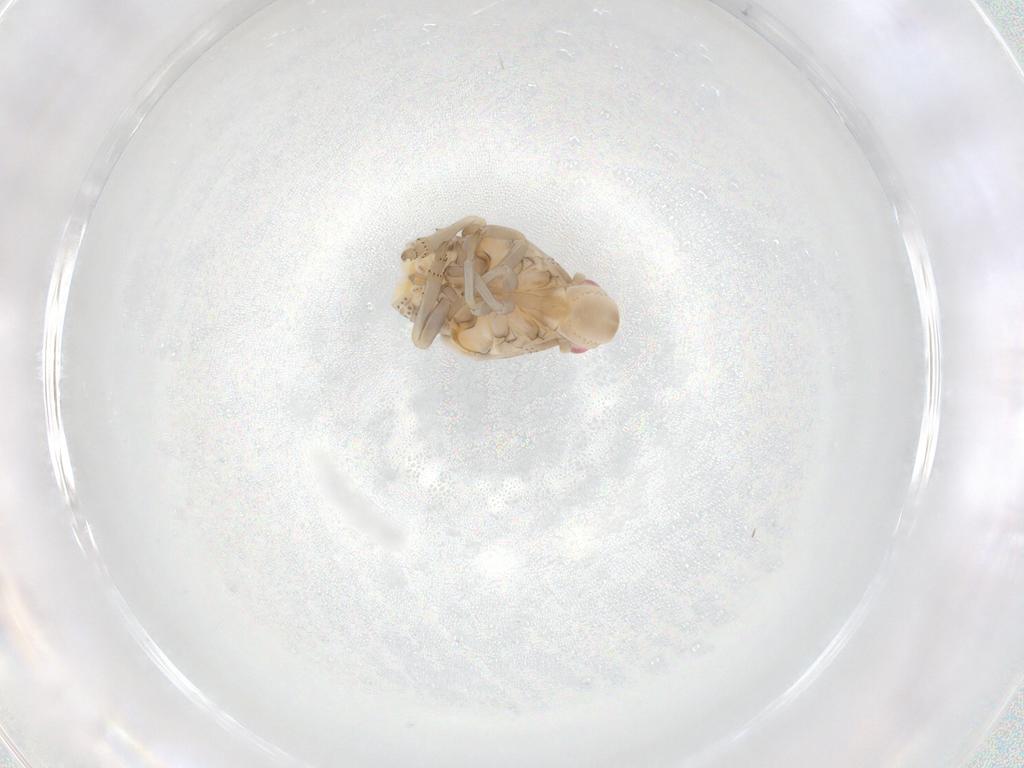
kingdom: Animalia
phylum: Arthropoda
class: Insecta
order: Hemiptera
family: Flatidae
